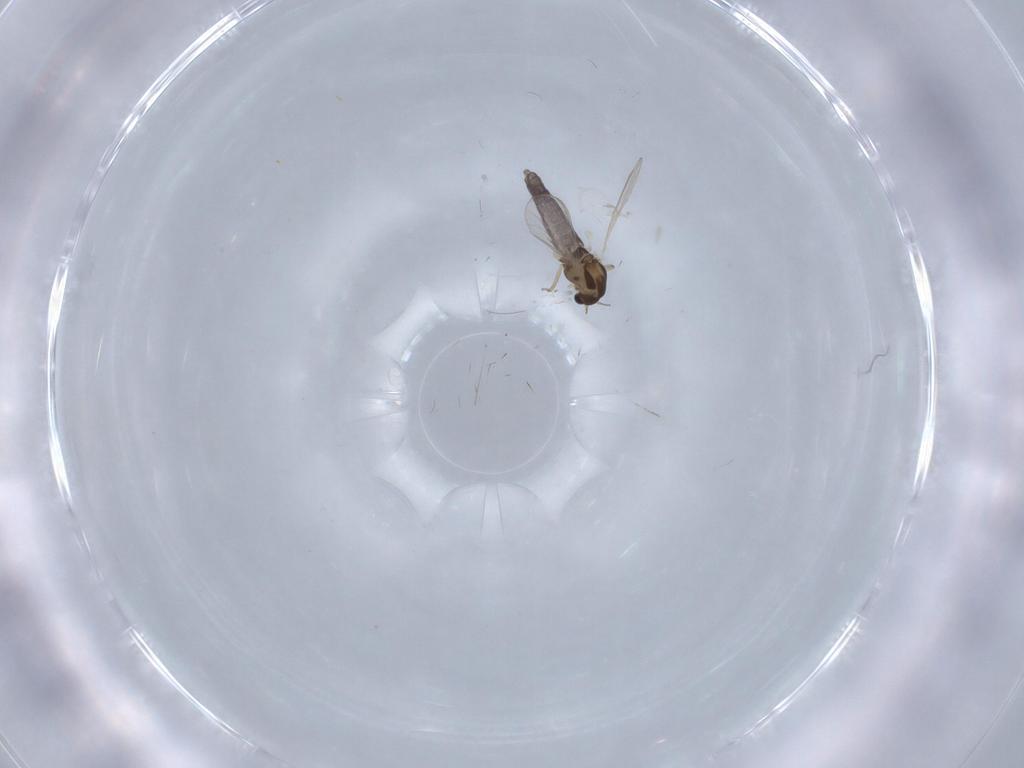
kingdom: Animalia
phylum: Arthropoda
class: Insecta
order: Diptera
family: Chironomidae
